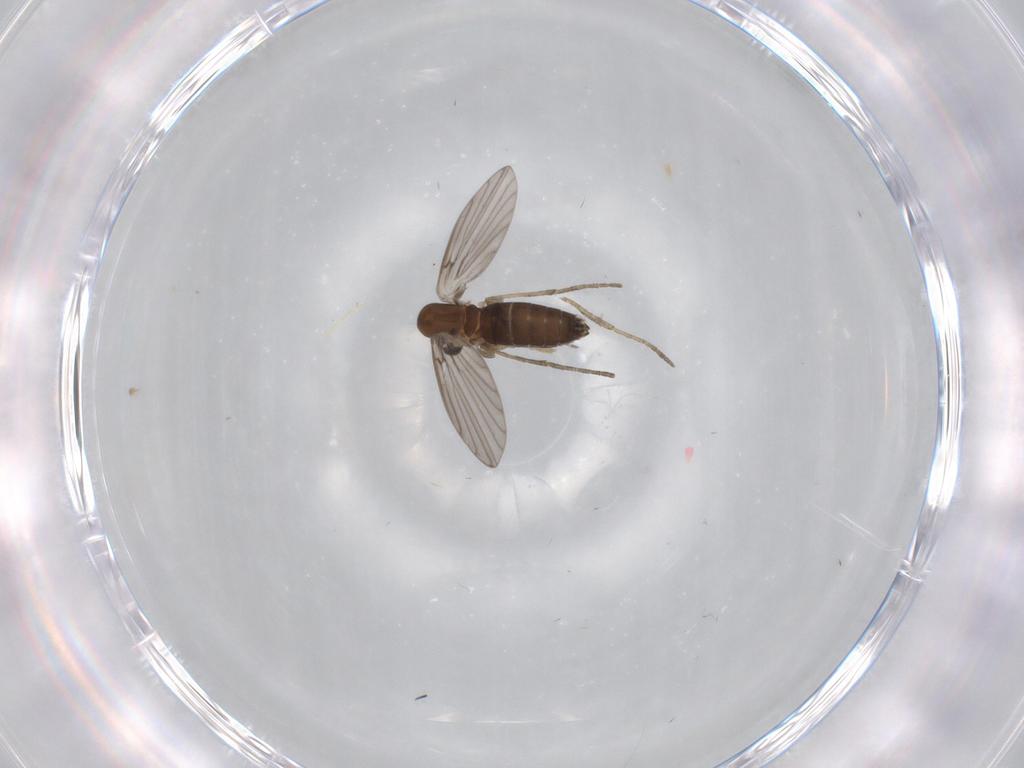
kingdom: Animalia
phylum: Arthropoda
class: Insecta
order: Diptera
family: Psychodidae
